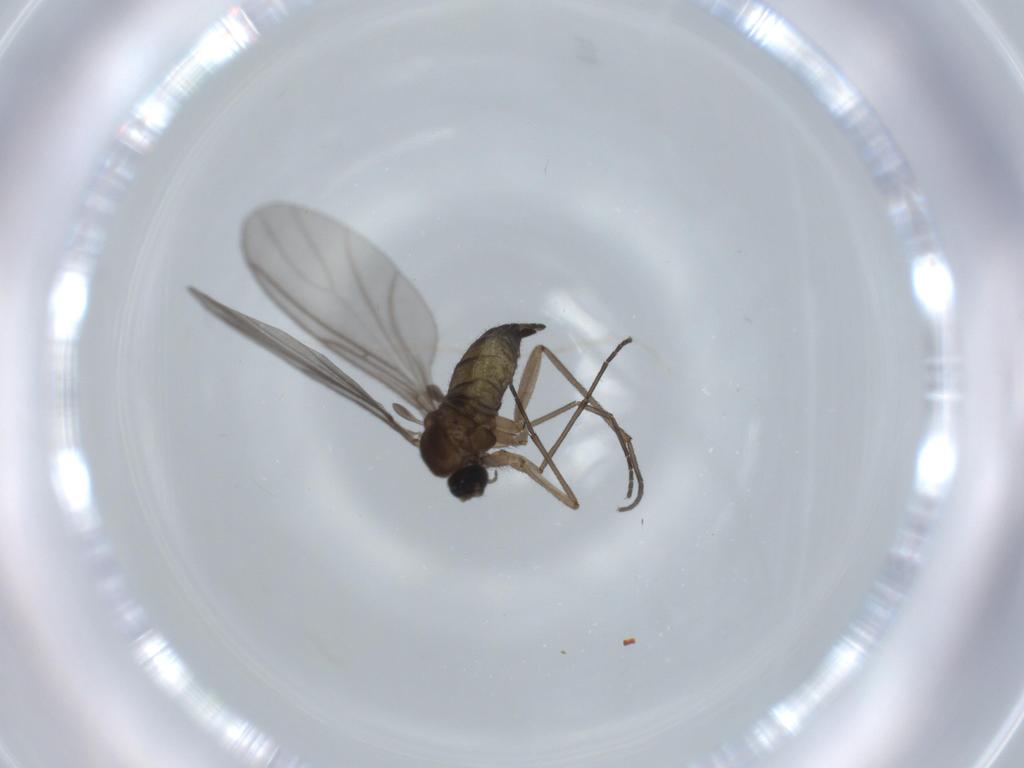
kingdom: Animalia
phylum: Arthropoda
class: Insecta
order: Diptera
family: Sciaridae
